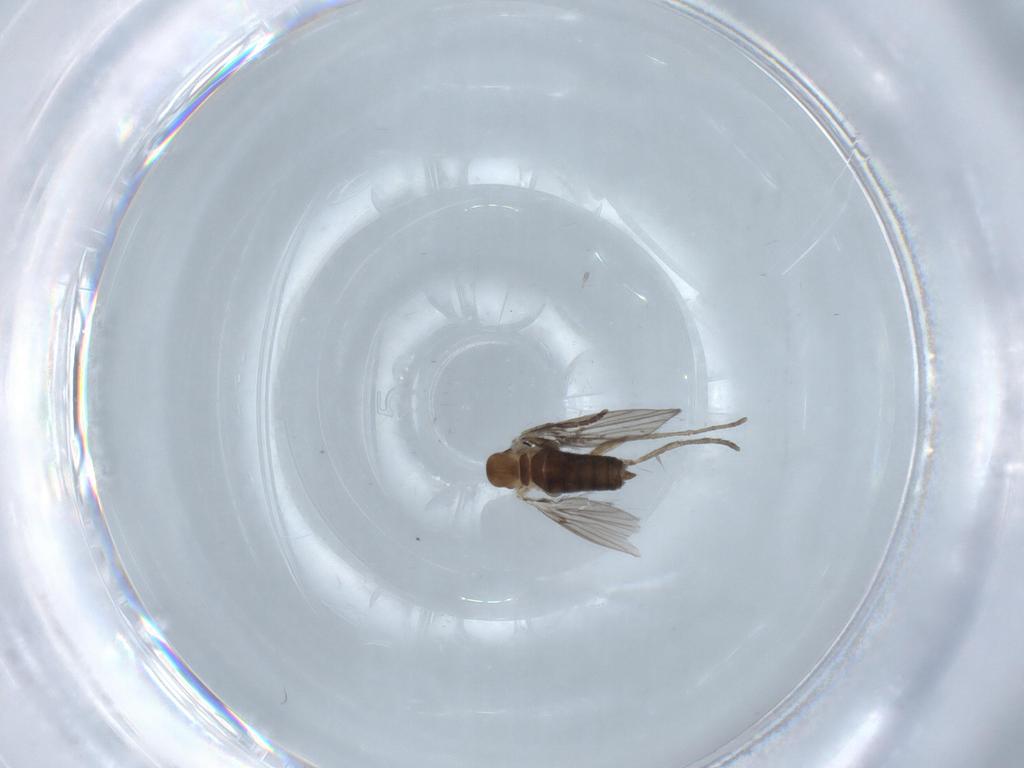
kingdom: Animalia
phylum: Arthropoda
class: Insecta
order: Diptera
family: Psychodidae
